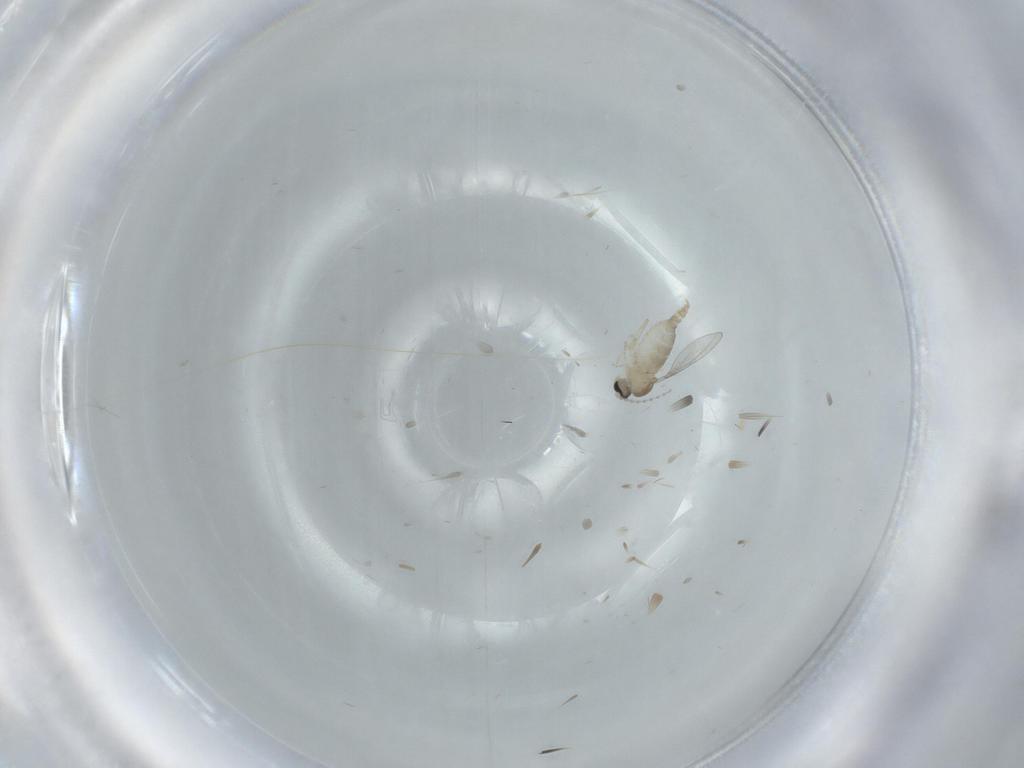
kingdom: Animalia
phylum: Arthropoda
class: Insecta
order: Diptera
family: Cecidomyiidae
